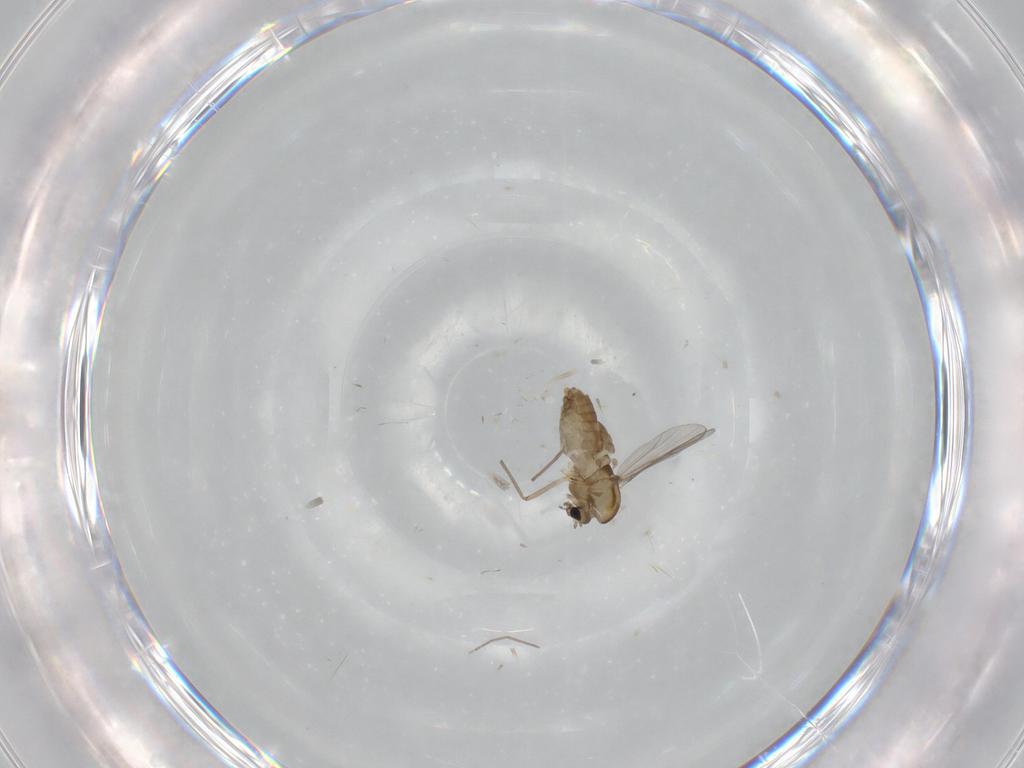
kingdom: Animalia
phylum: Arthropoda
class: Insecta
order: Diptera
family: Chironomidae
